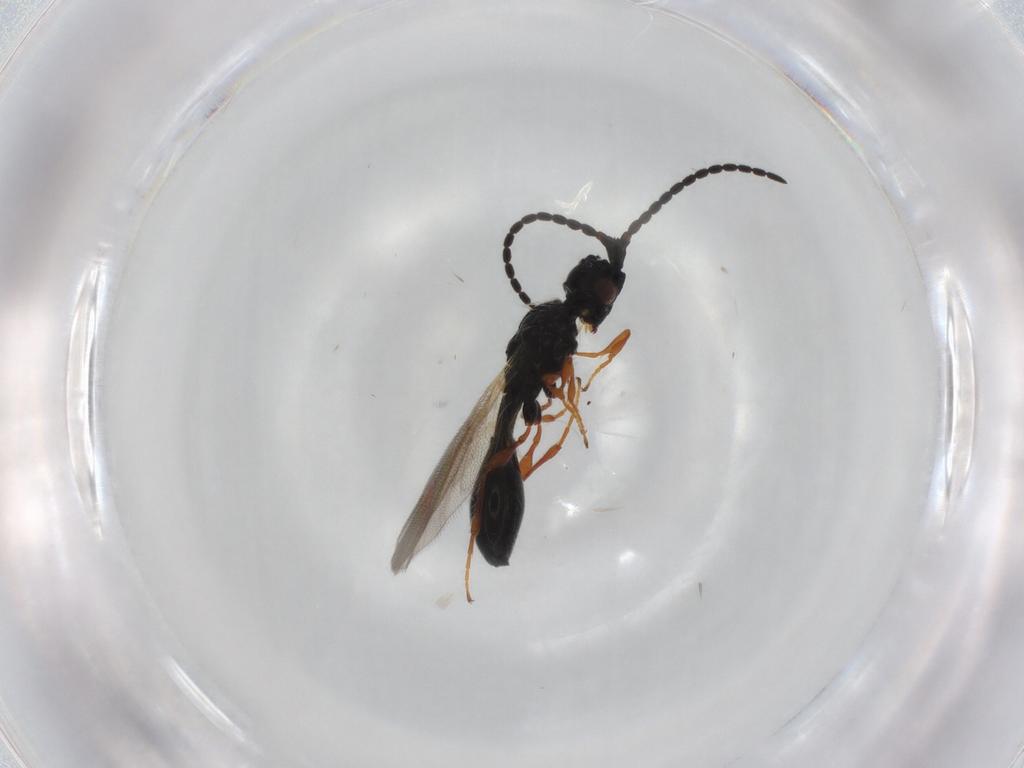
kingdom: Animalia
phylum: Arthropoda
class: Insecta
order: Hymenoptera
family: Diapriidae
